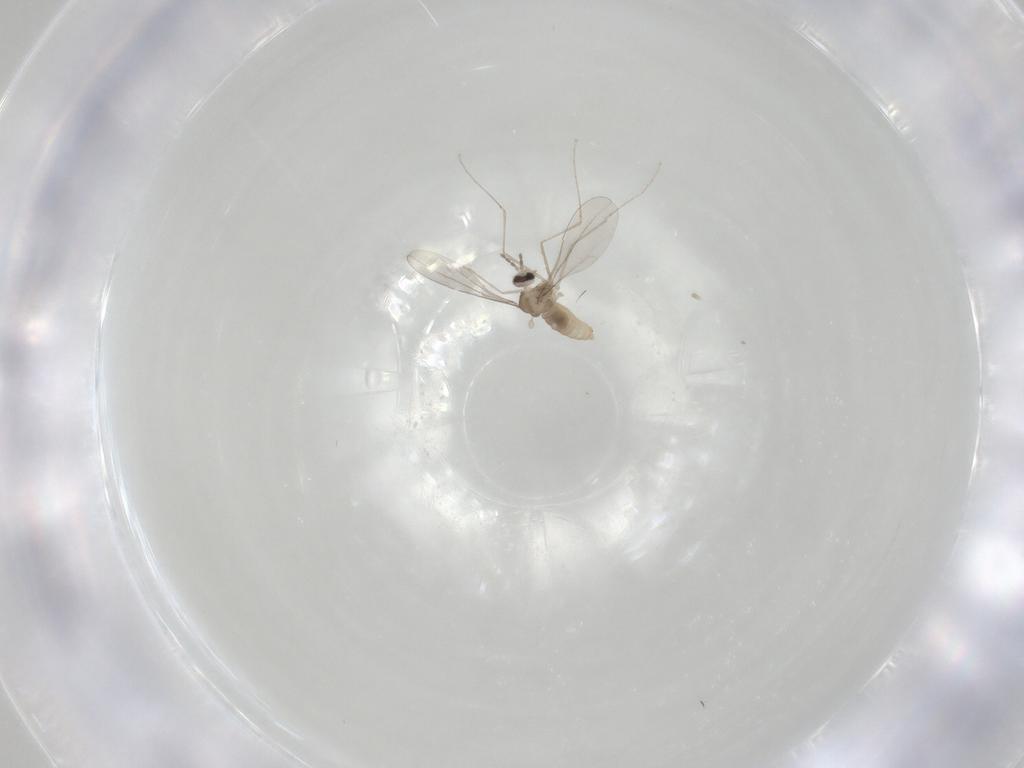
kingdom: Animalia
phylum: Arthropoda
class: Insecta
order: Diptera
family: Cecidomyiidae
